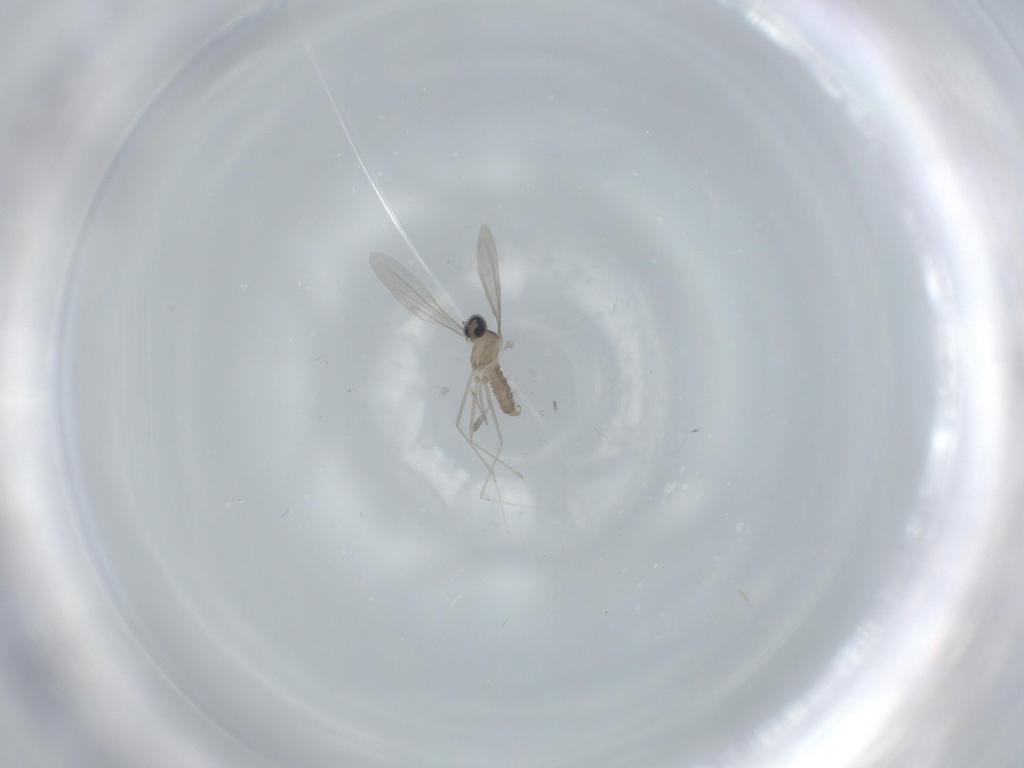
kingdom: Animalia
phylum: Arthropoda
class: Insecta
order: Diptera
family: Cecidomyiidae
